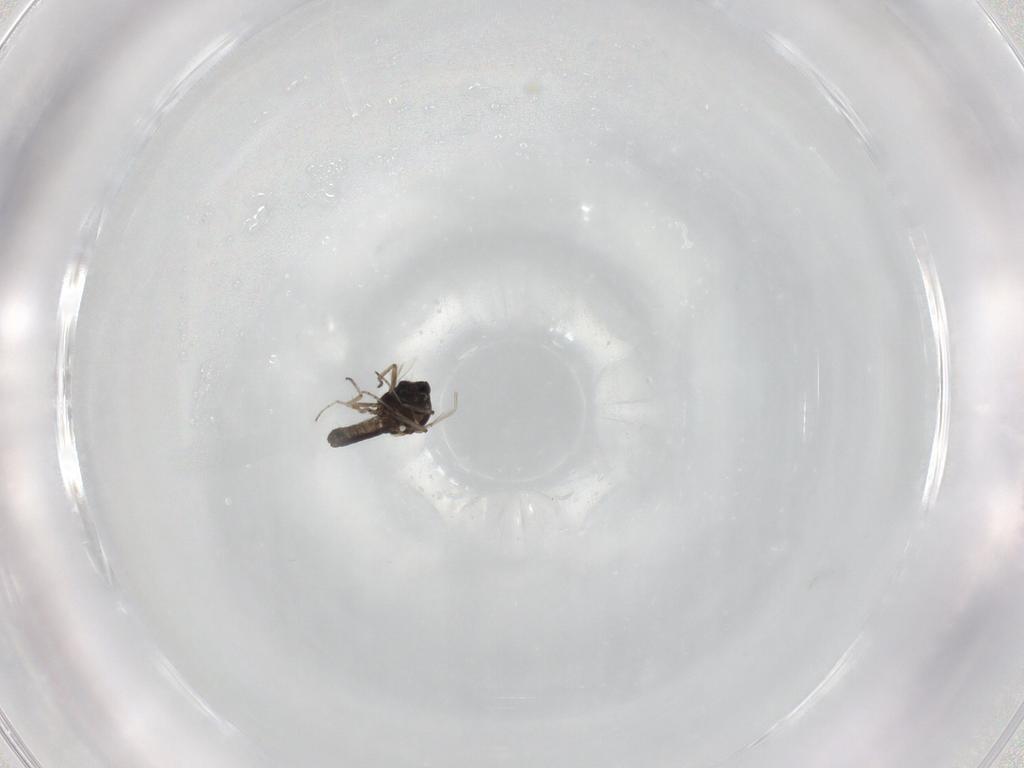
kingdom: Animalia
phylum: Arthropoda
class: Insecta
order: Diptera
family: Ceratopogonidae
